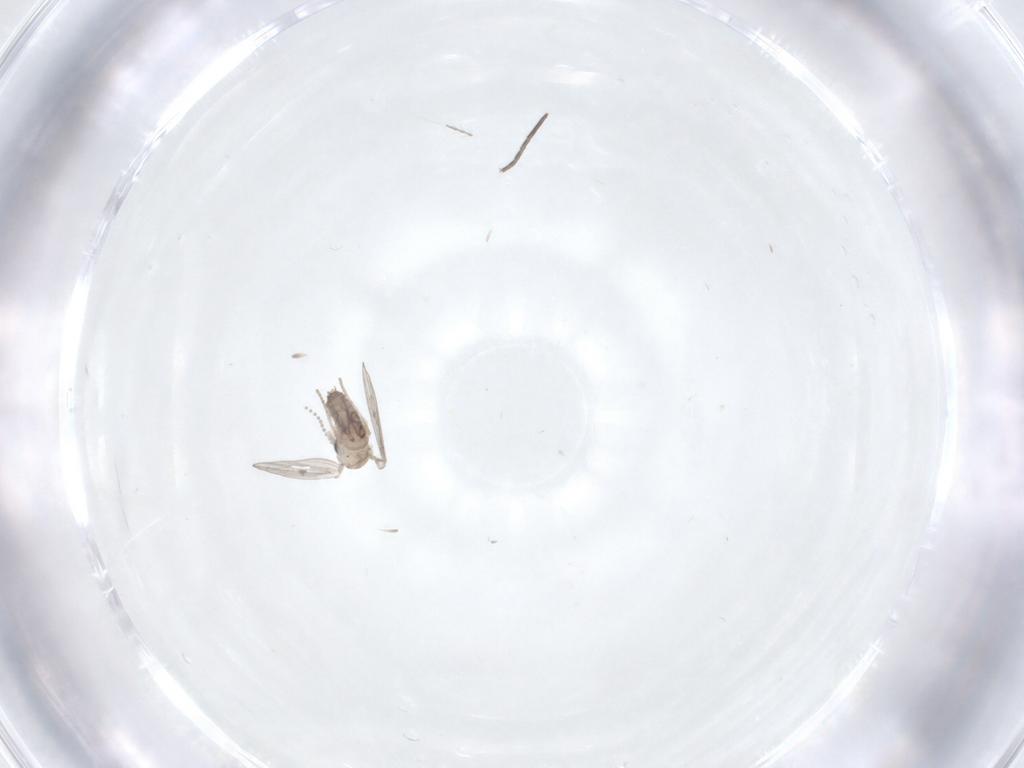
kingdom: Animalia
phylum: Arthropoda
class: Insecta
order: Diptera
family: Psychodidae
